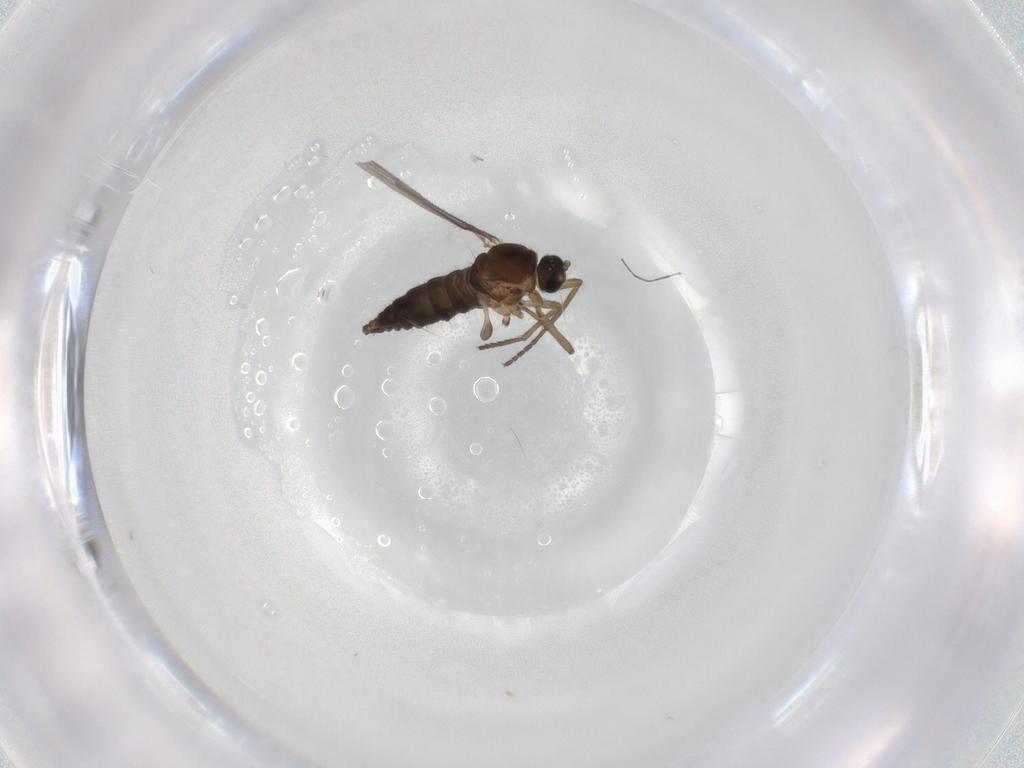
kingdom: Animalia
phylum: Arthropoda
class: Insecta
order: Diptera
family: Sciaridae
